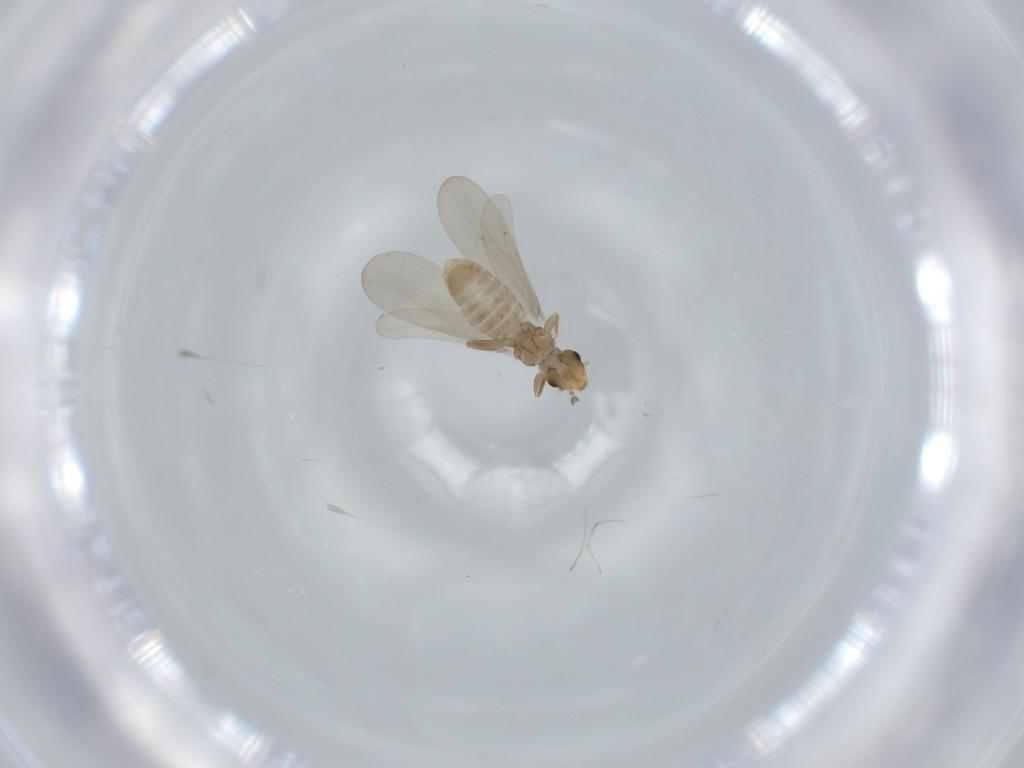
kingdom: Animalia
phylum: Arthropoda
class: Insecta
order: Psocodea
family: Liposcelididae
